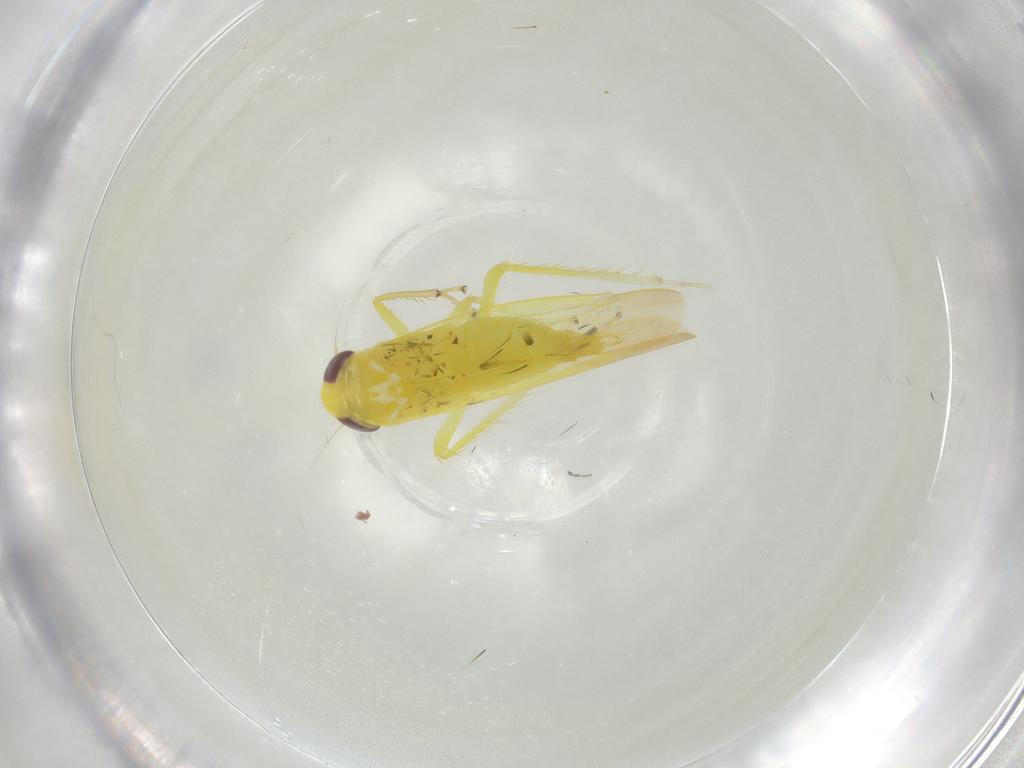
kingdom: Animalia
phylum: Arthropoda
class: Insecta
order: Hemiptera
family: Cicadellidae
